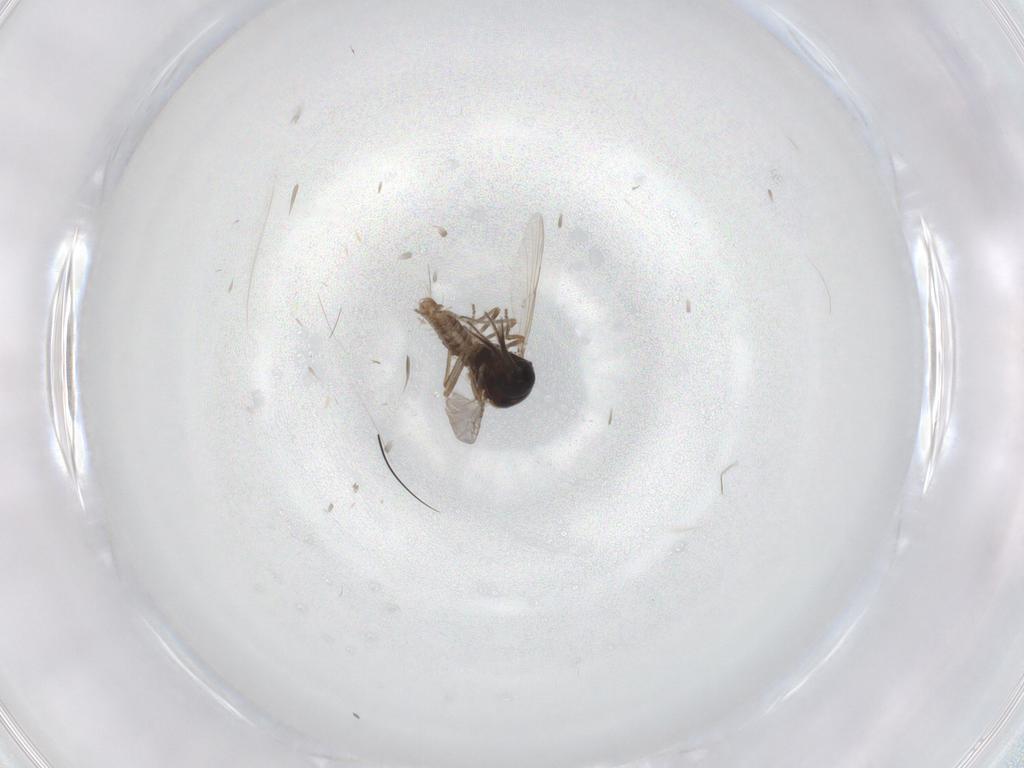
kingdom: Animalia
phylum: Arthropoda
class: Insecta
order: Diptera
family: Ceratopogonidae
